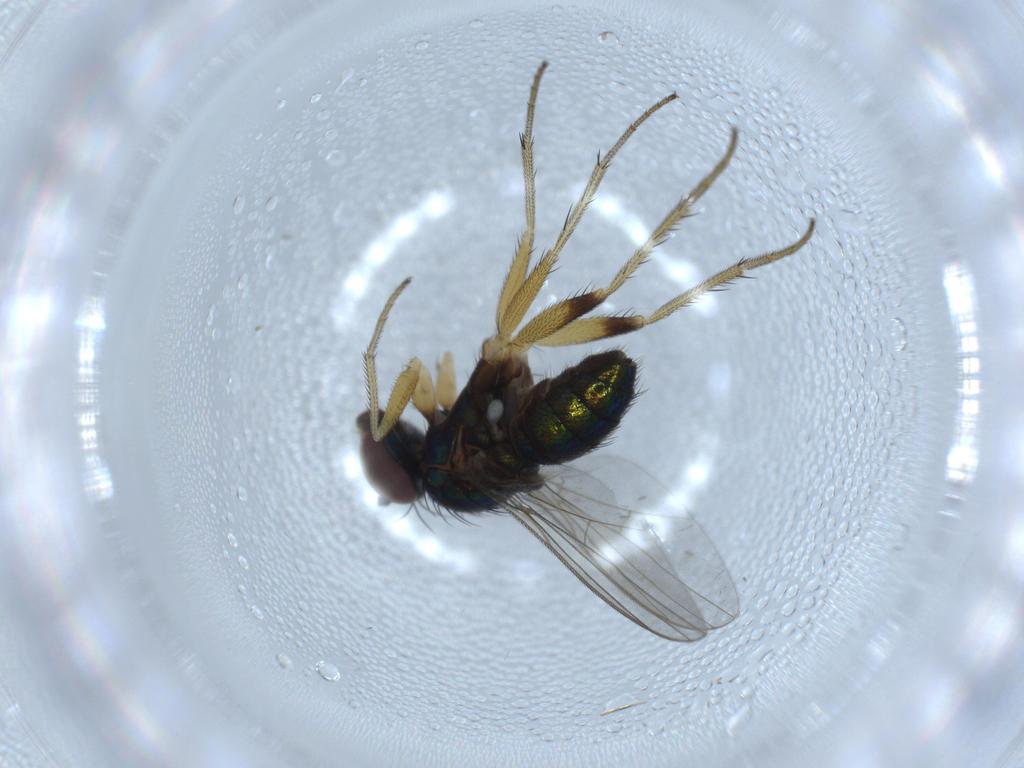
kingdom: Animalia
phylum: Arthropoda
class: Insecta
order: Diptera
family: Dolichopodidae
